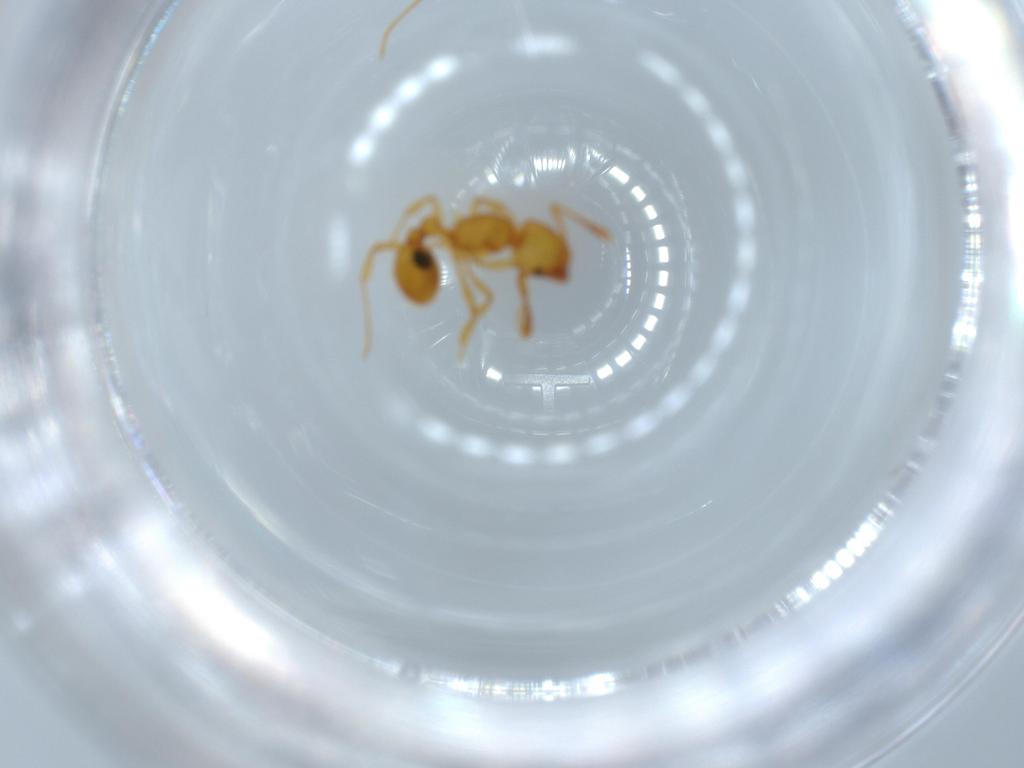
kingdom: Animalia
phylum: Arthropoda
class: Insecta
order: Hymenoptera
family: Formicidae
